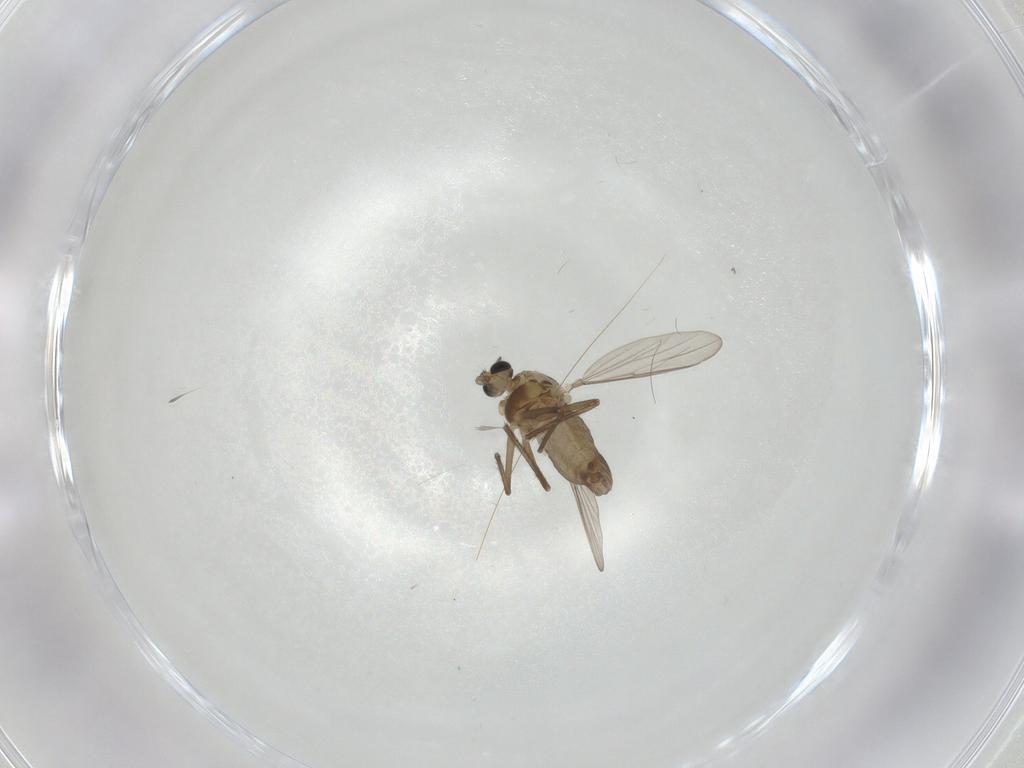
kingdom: Animalia
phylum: Arthropoda
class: Insecta
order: Diptera
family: Chironomidae
